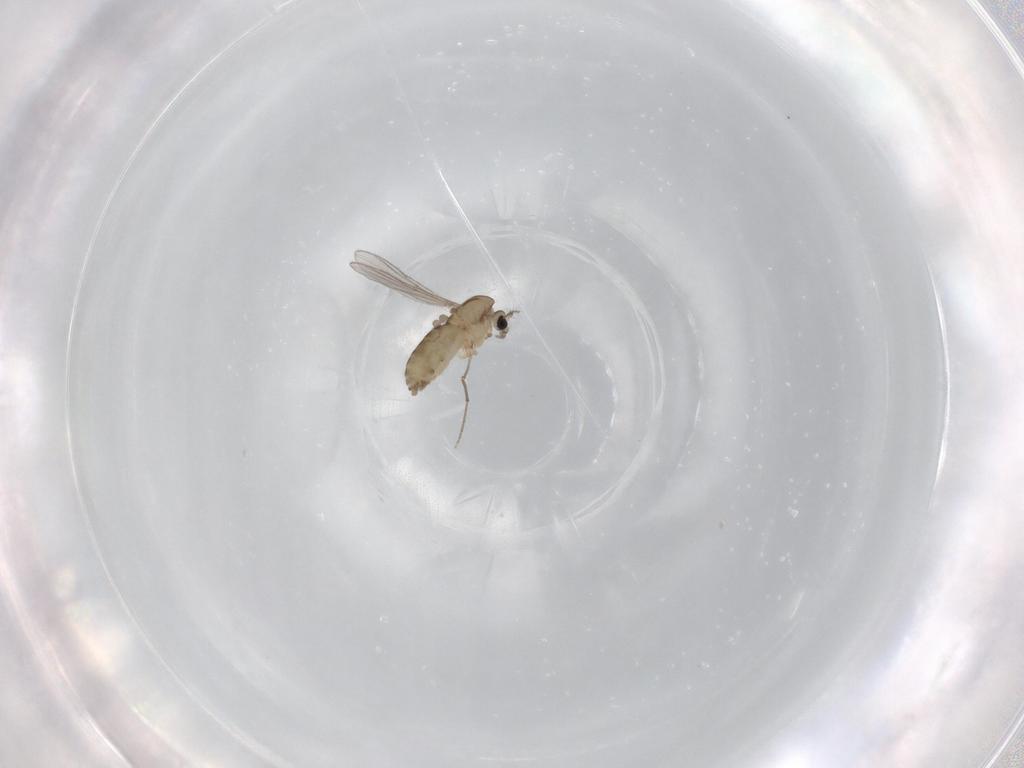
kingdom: Animalia
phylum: Arthropoda
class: Insecta
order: Diptera
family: Chironomidae
